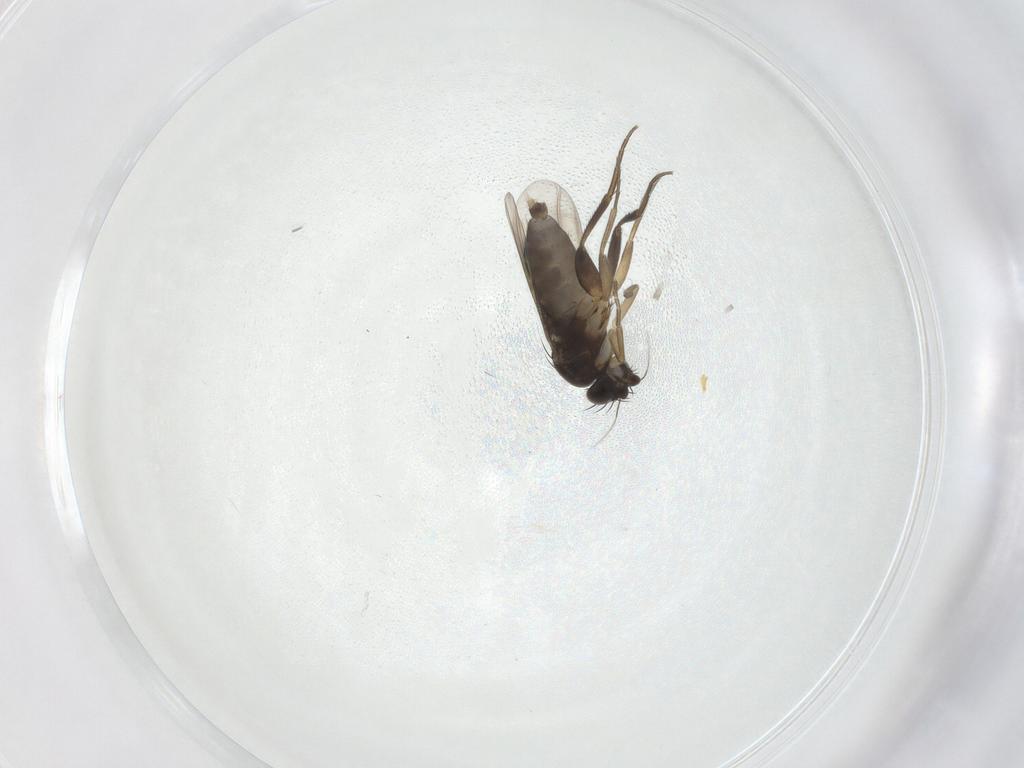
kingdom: Animalia
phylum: Arthropoda
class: Insecta
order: Diptera
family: Phoridae
